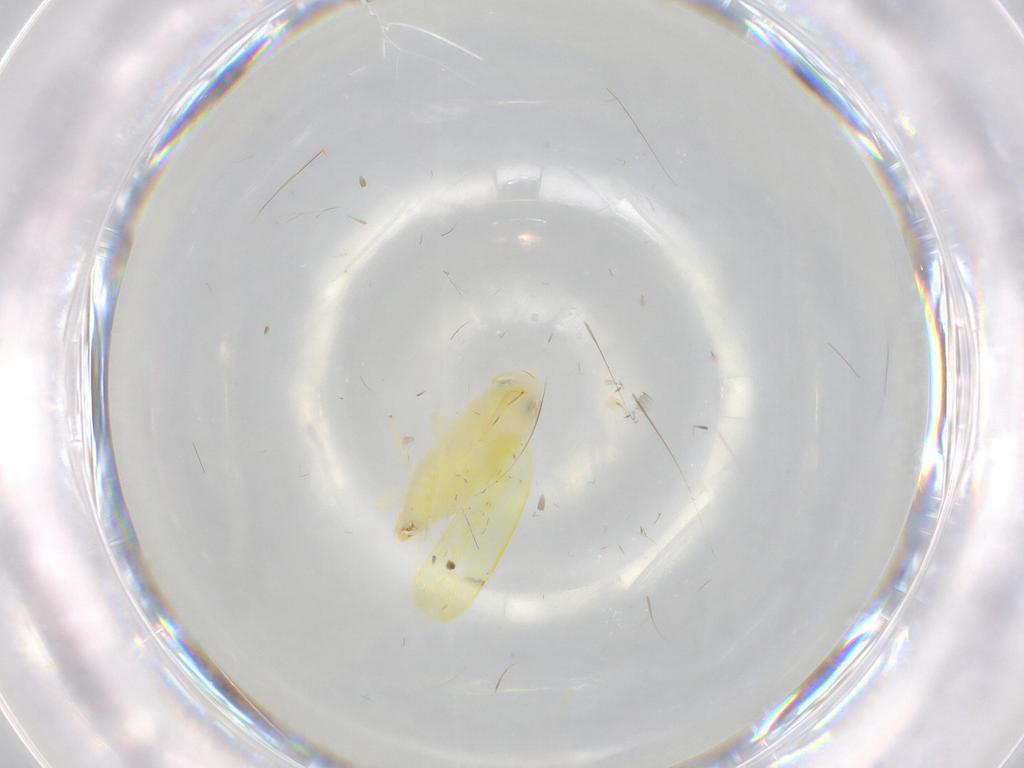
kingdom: Animalia
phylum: Arthropoda
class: Insecta
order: Hemiptera
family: Cicadellidae
